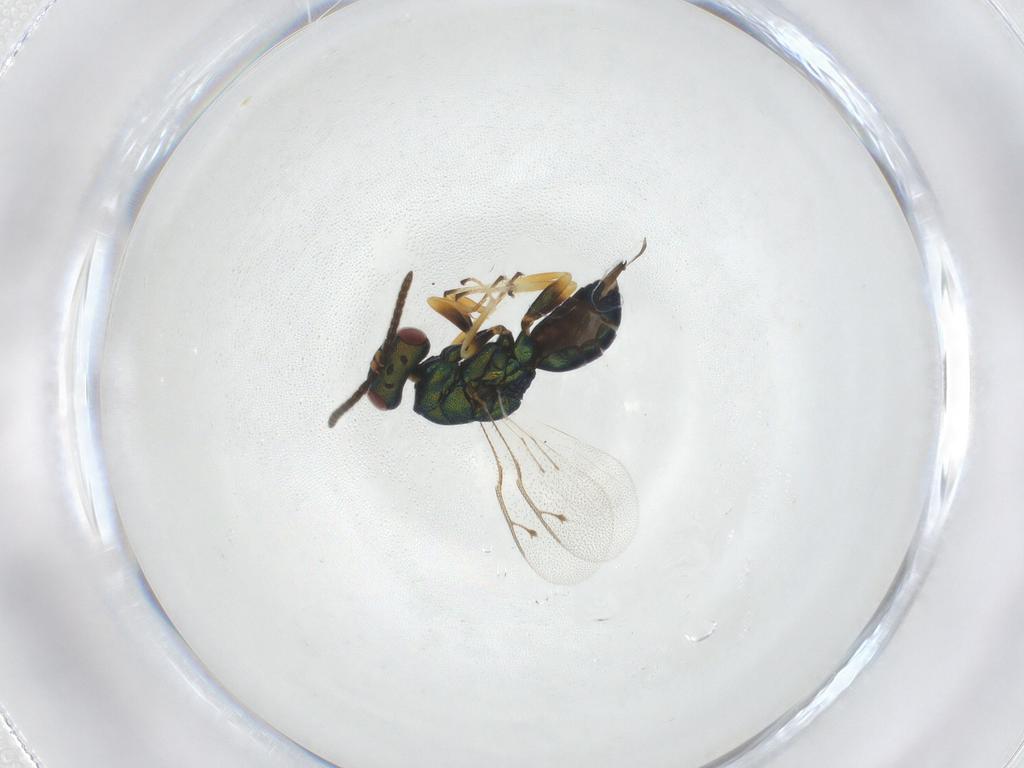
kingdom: Animalia
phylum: Arthropoda
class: Insecta
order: Hymenoptera
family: Pteromalidae
